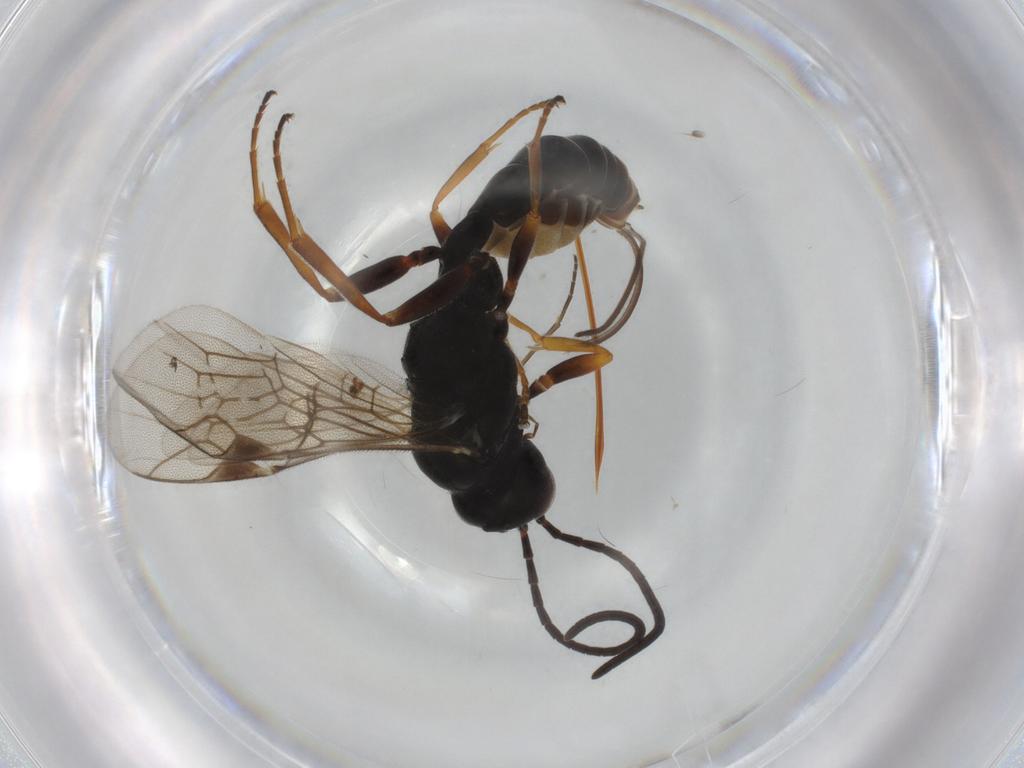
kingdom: Animalia
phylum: Arthropoda
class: Insecta
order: Hymenoptera
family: Ichneumonidae
